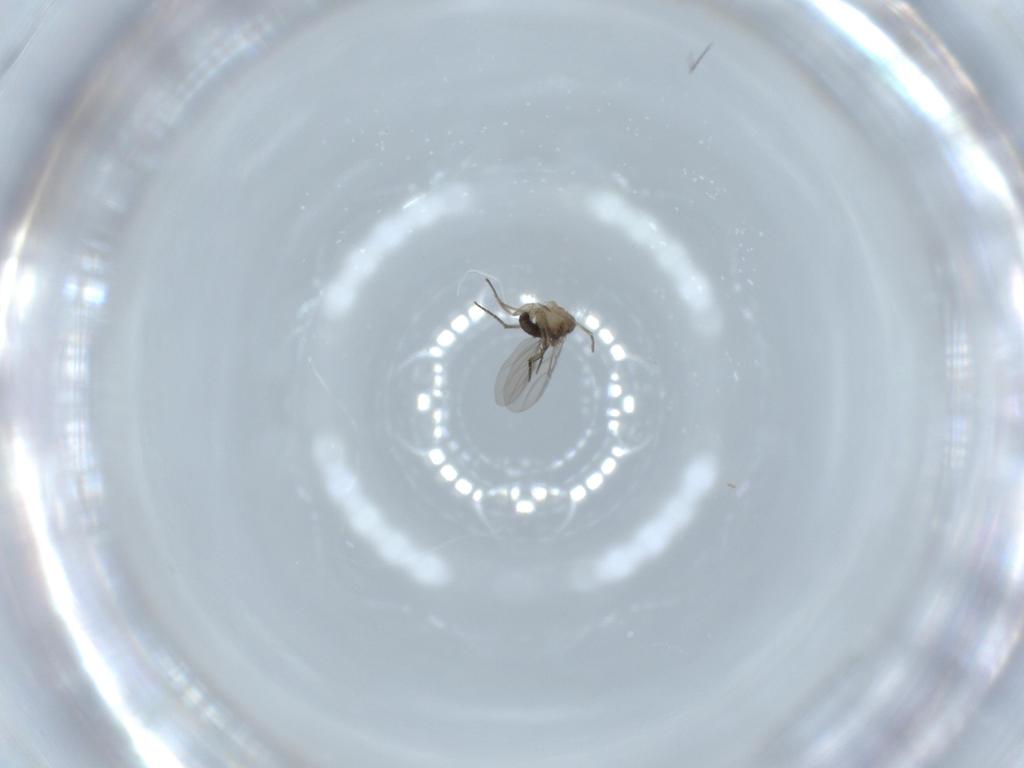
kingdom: Animalia
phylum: Arthropoda
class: Insecta
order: Diptera
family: Phoridae
